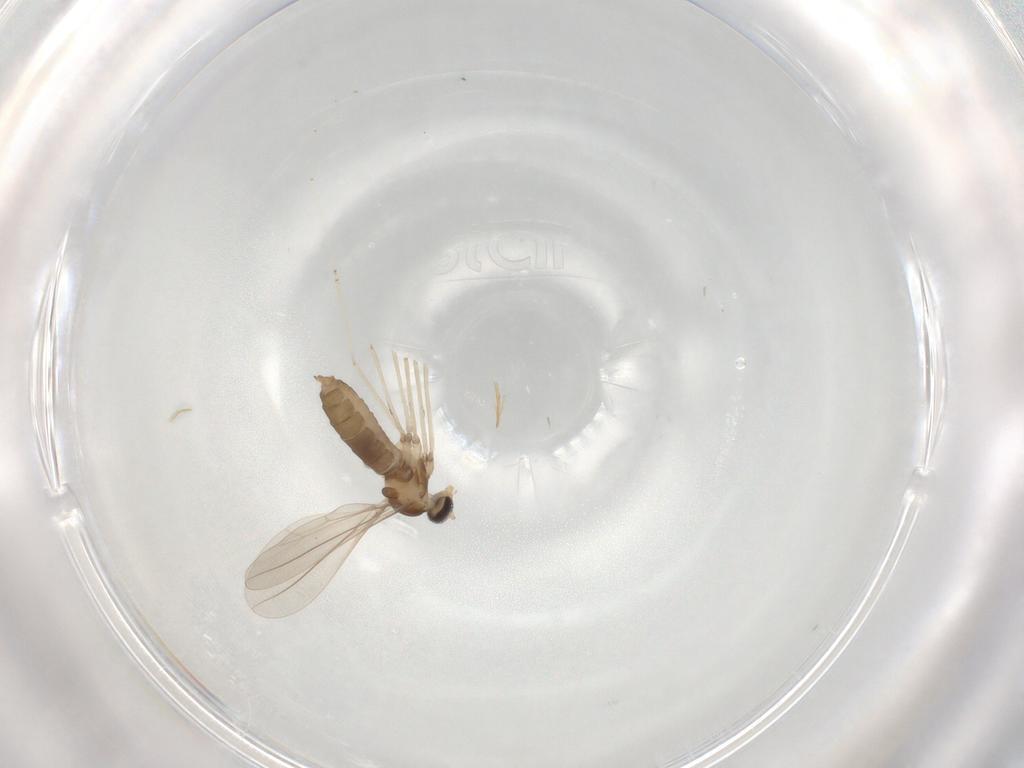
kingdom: Animalia
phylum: Arthropoda
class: Insecta
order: Diptera
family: Cecidomyiidae
